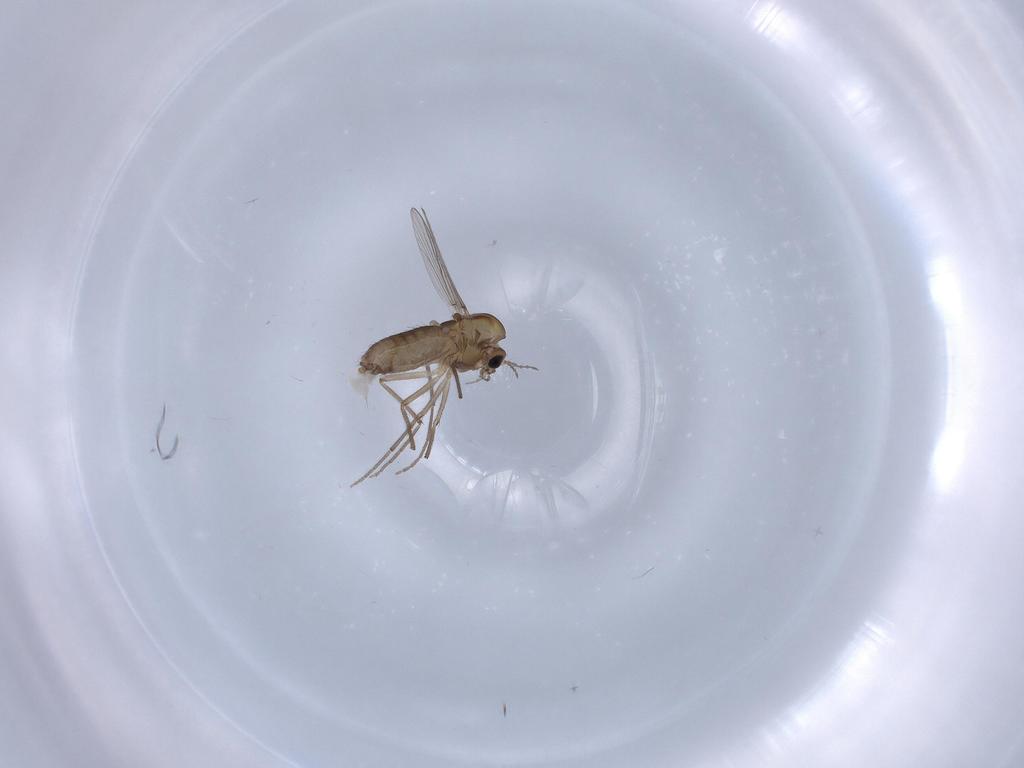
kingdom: Animalia
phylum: Arthropoda
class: Insecta
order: Diptera
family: Chironomidae
